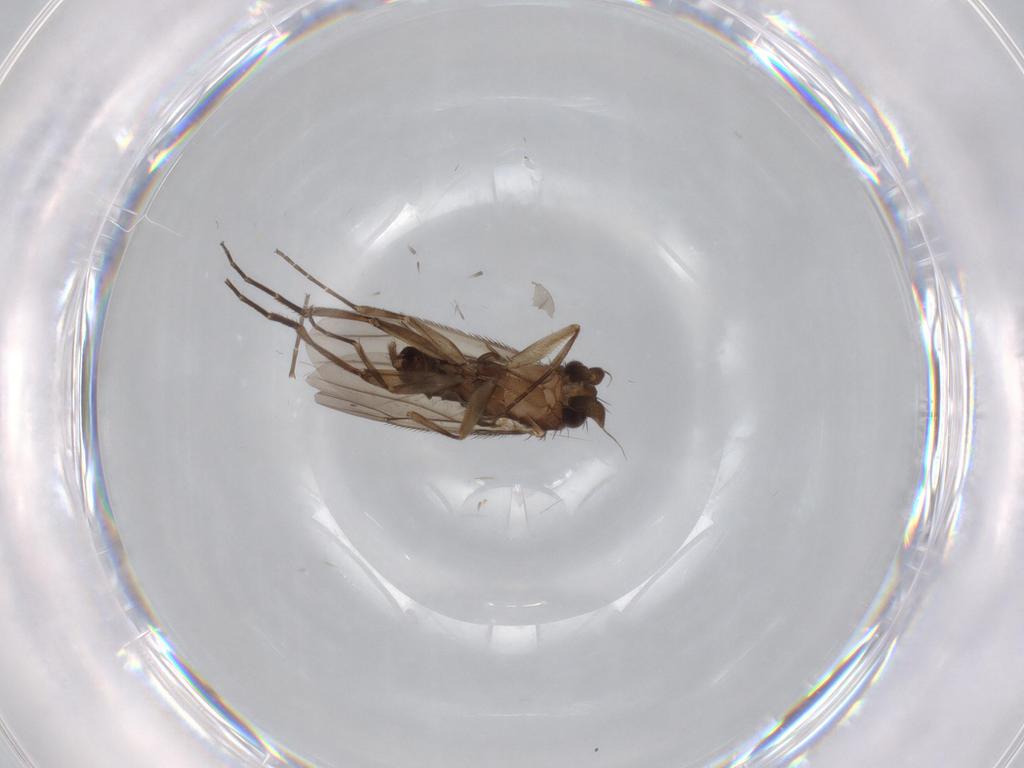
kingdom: Animalia
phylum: Arthropoda
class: Insecta
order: Diptera
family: Phoridae
